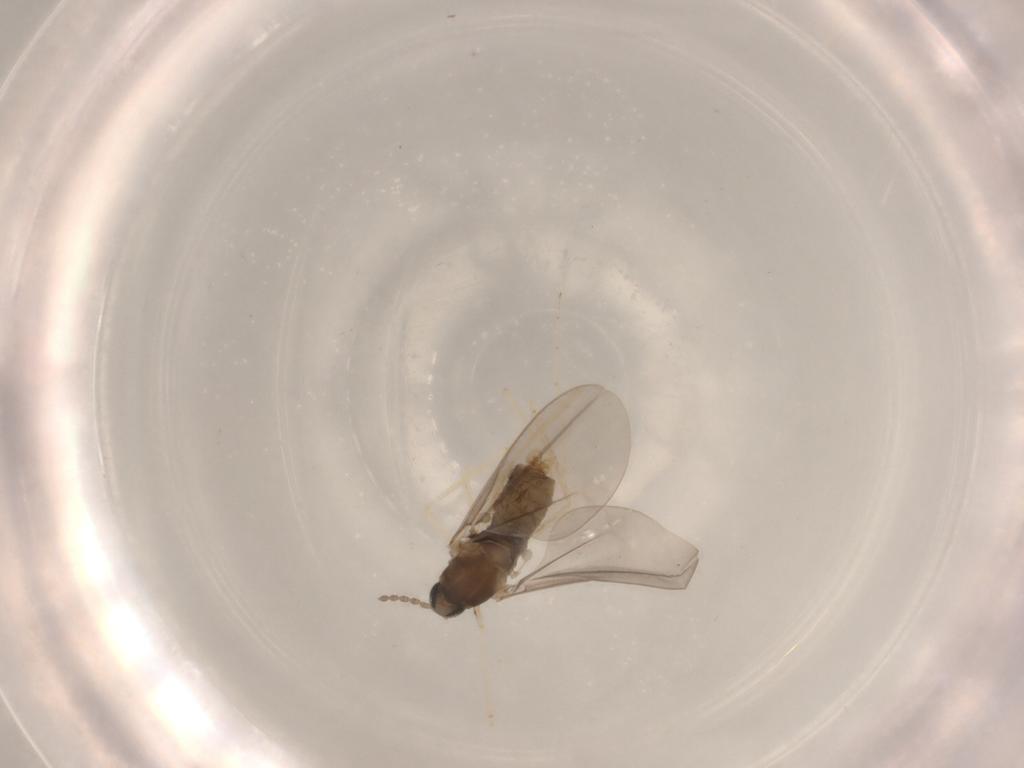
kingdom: Animalia
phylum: Arthropoda
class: Insecta
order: Diptera
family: Cecidomyiidae
